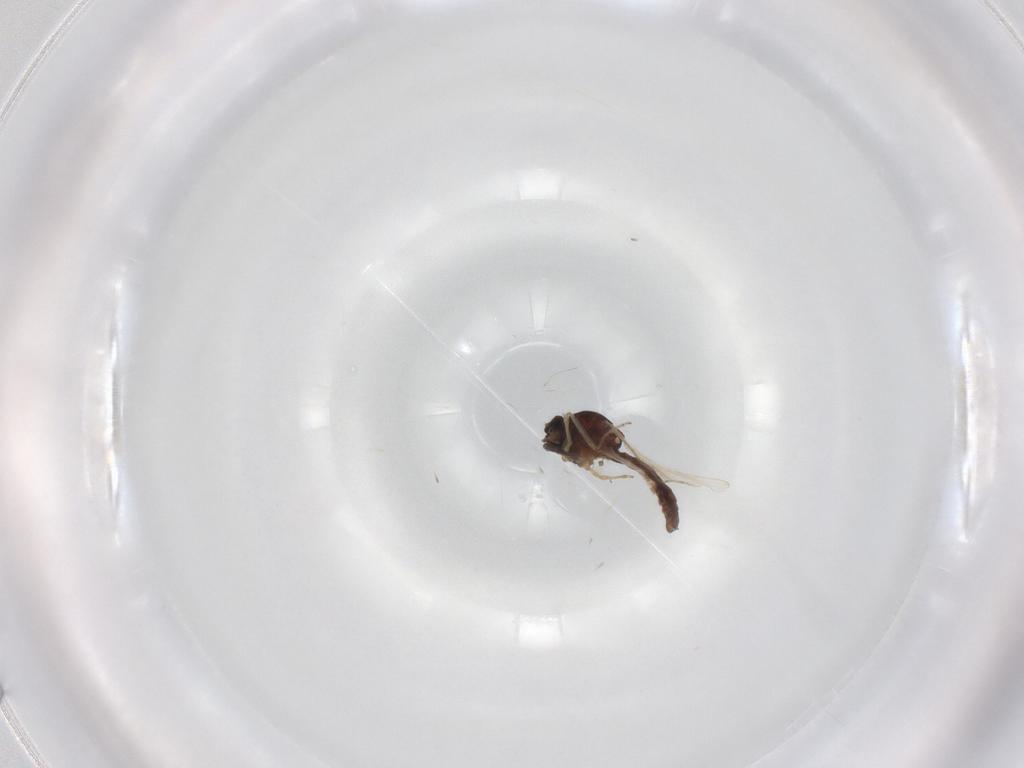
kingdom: Animalia
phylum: Arthropoda
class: Insecta
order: Diptera
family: Ceratopogonidae
